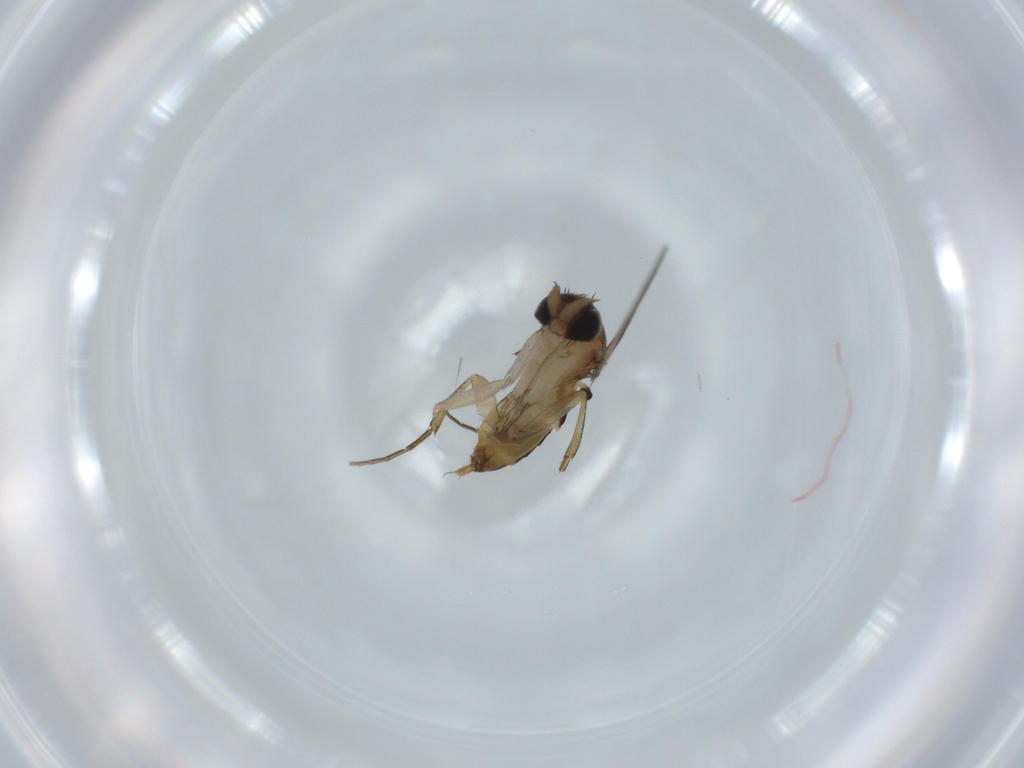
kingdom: Animalia
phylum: Arthropoda
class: Insecta
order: Diptera
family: Phoridae
